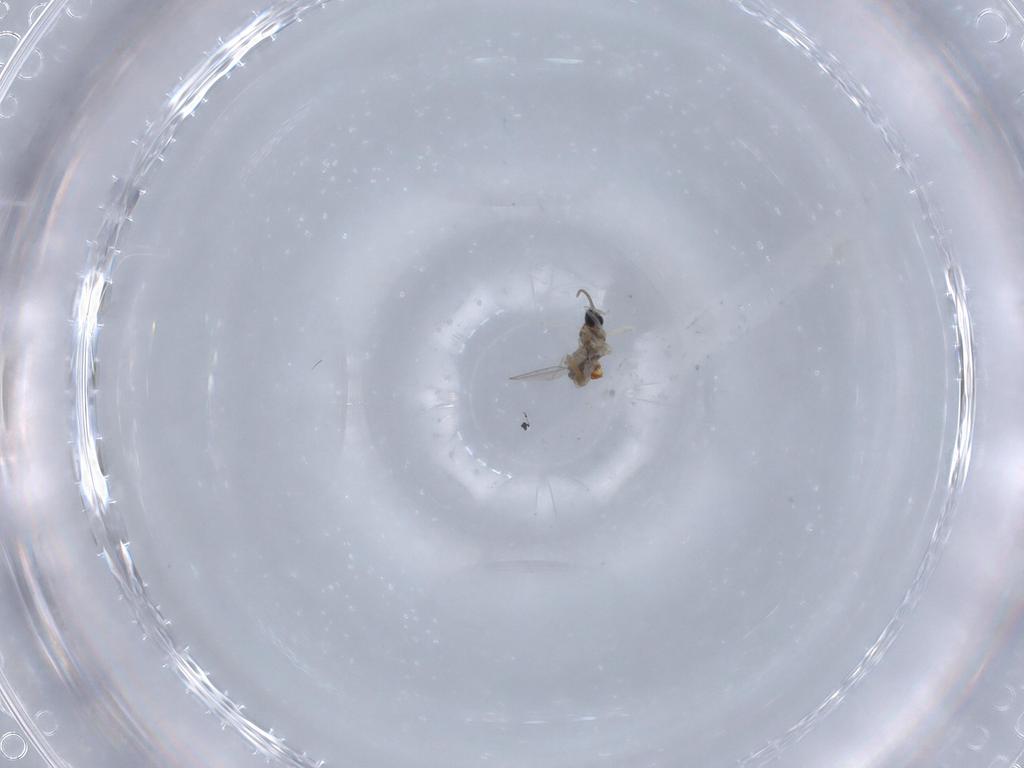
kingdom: Animalia
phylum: Arthropoda
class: Insecta
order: Diptera
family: Cecidomyiidae
